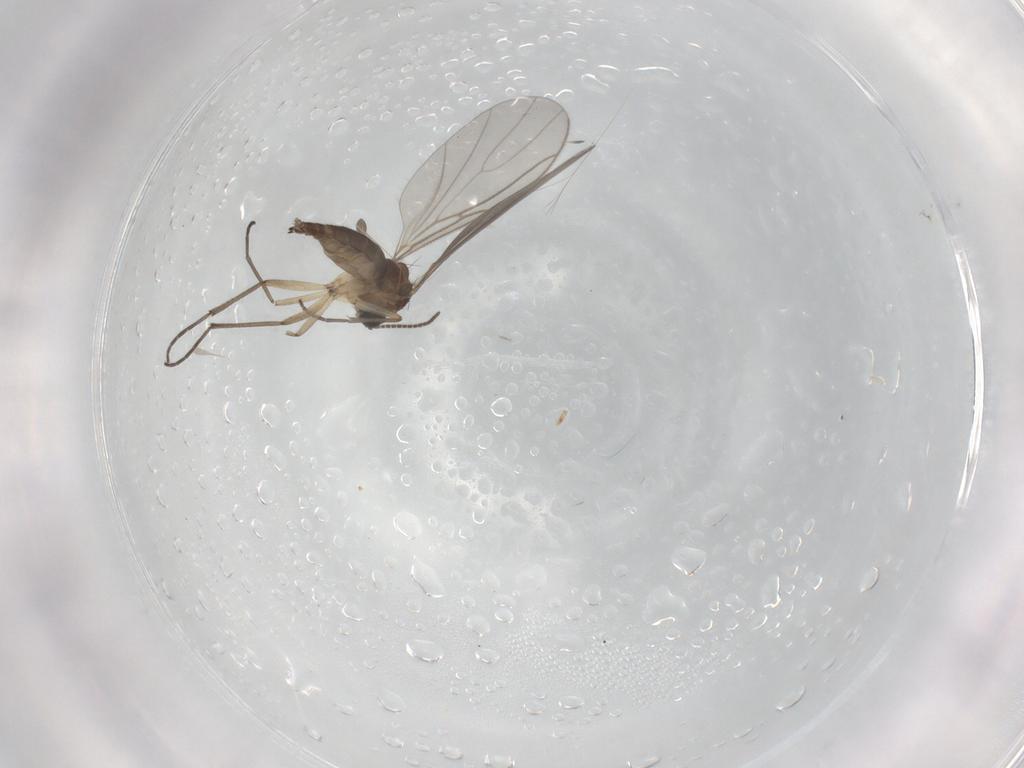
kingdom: Animalia
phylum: Arthropoda
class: Insecta
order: Diptera
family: Sciaridae
